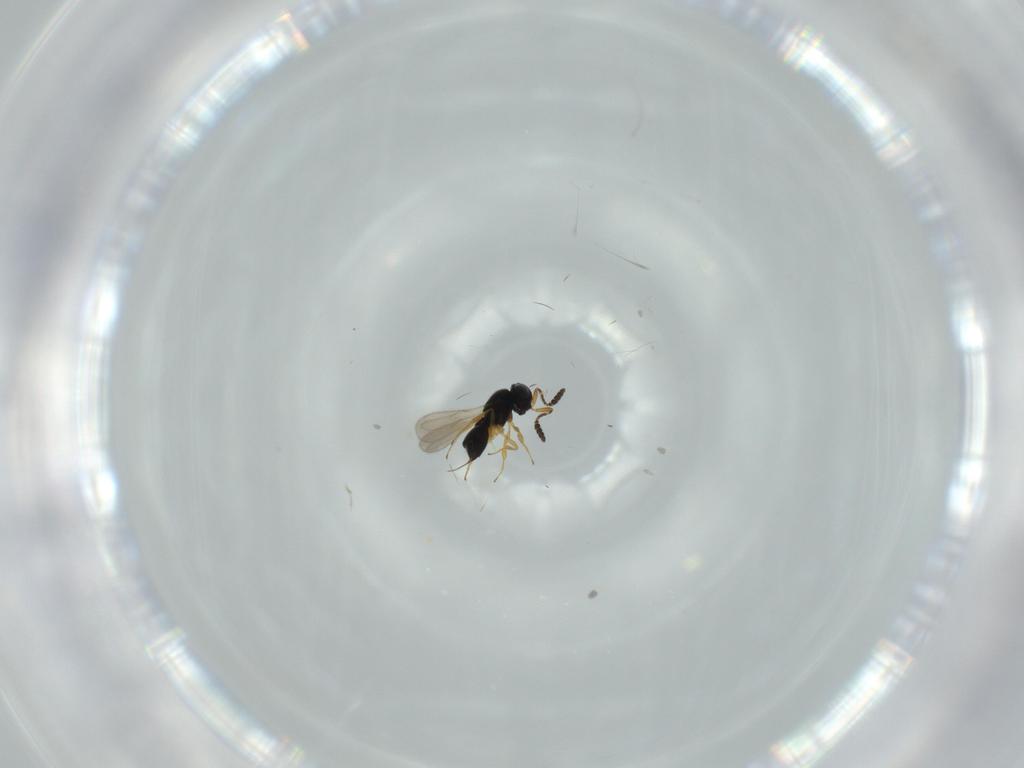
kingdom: Animalia
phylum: Arthropoda
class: Insecta
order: Hymenoptera
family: Scelionidae
